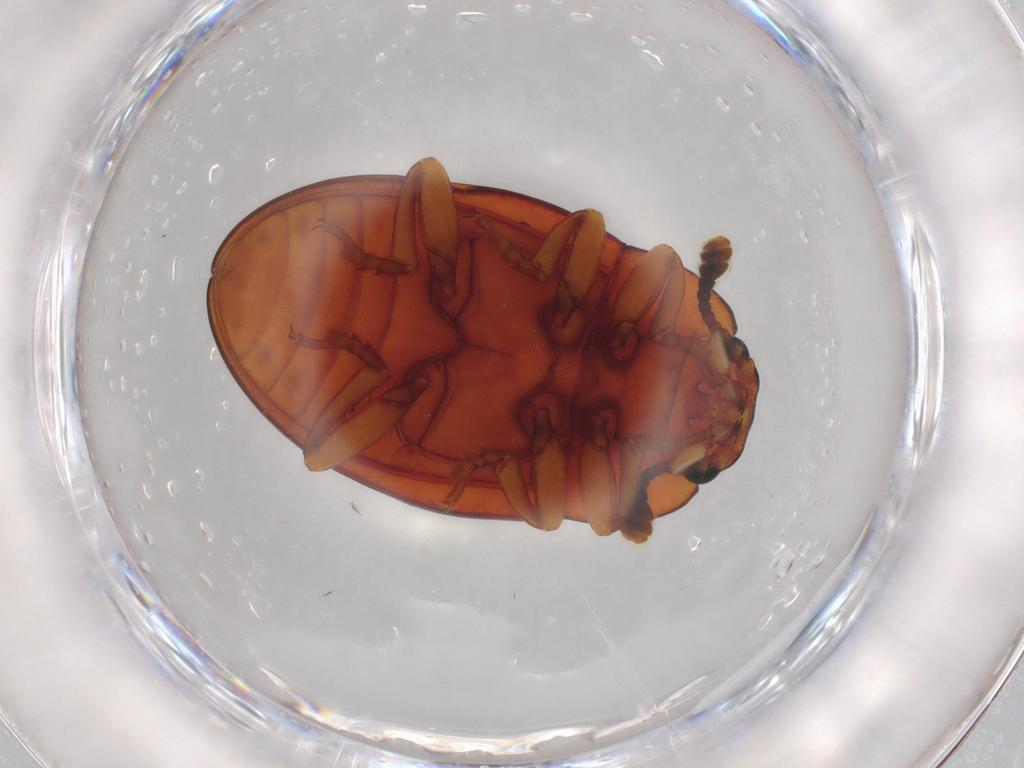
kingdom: Animalia
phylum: Arthropoda
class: Insecta
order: Coleoptera
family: Erotylidae
